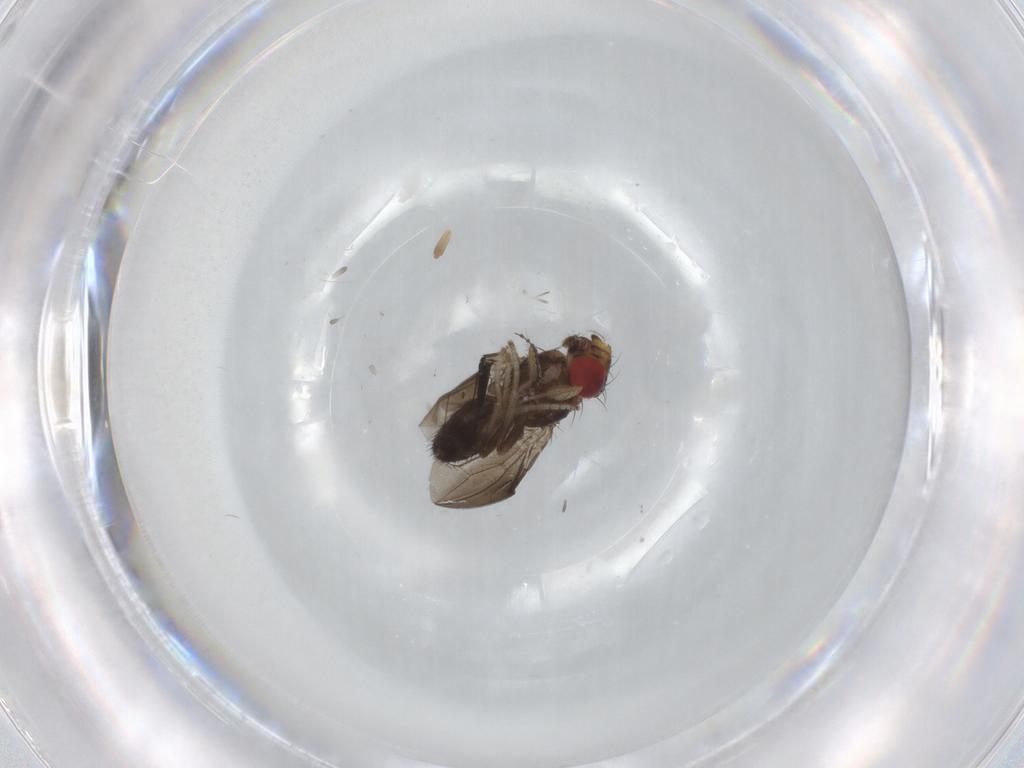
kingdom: Animalia
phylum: Arthropoda
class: Insecta
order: Diptera
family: Cecidomyiidae
